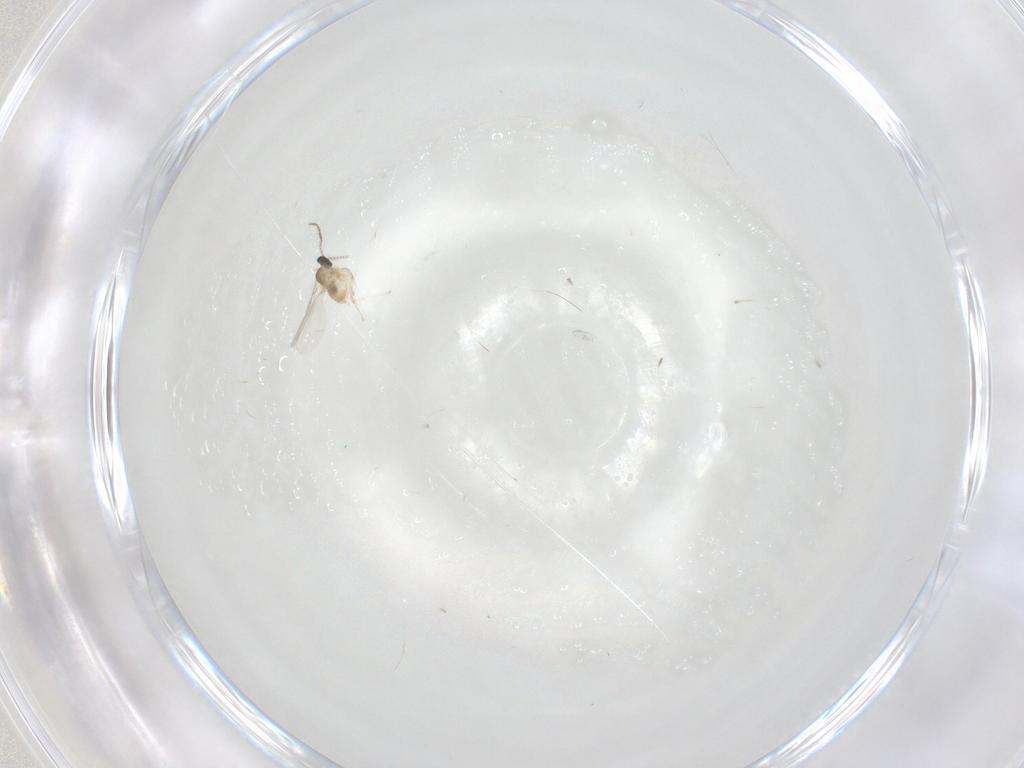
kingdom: Animalia
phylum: Arthropoda
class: Insecta
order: Diptera
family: Cecidomyiidae
